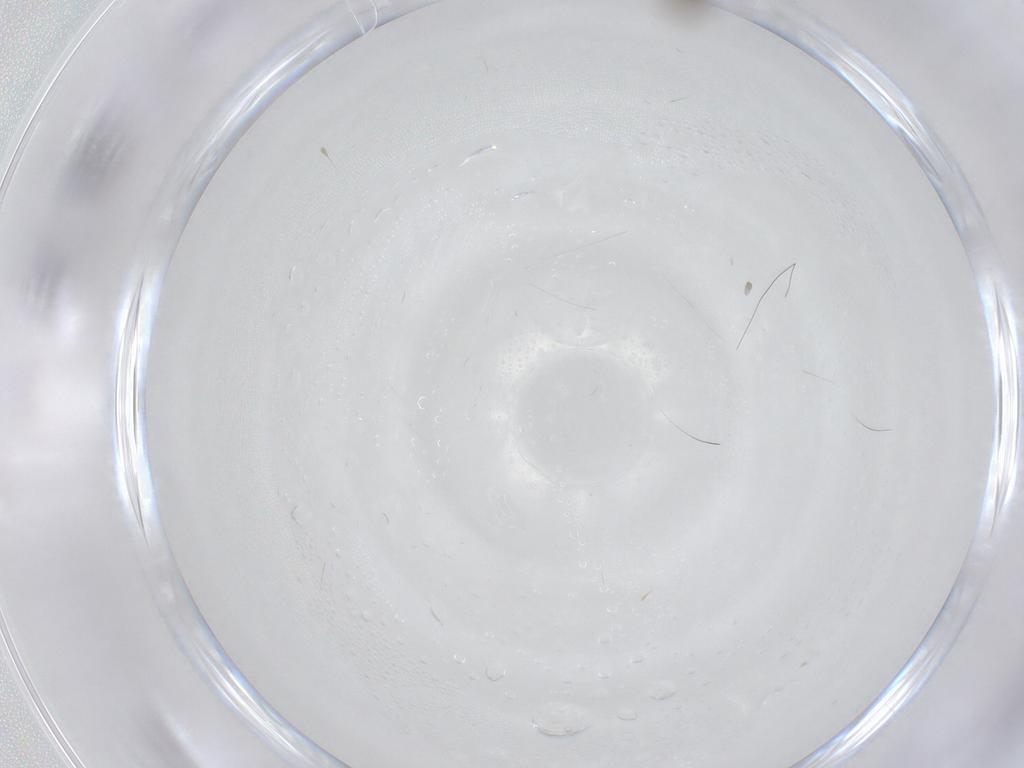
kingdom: Animalia
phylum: Arthropoda
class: Insecta
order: Diptera
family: Cecidomyiidae
